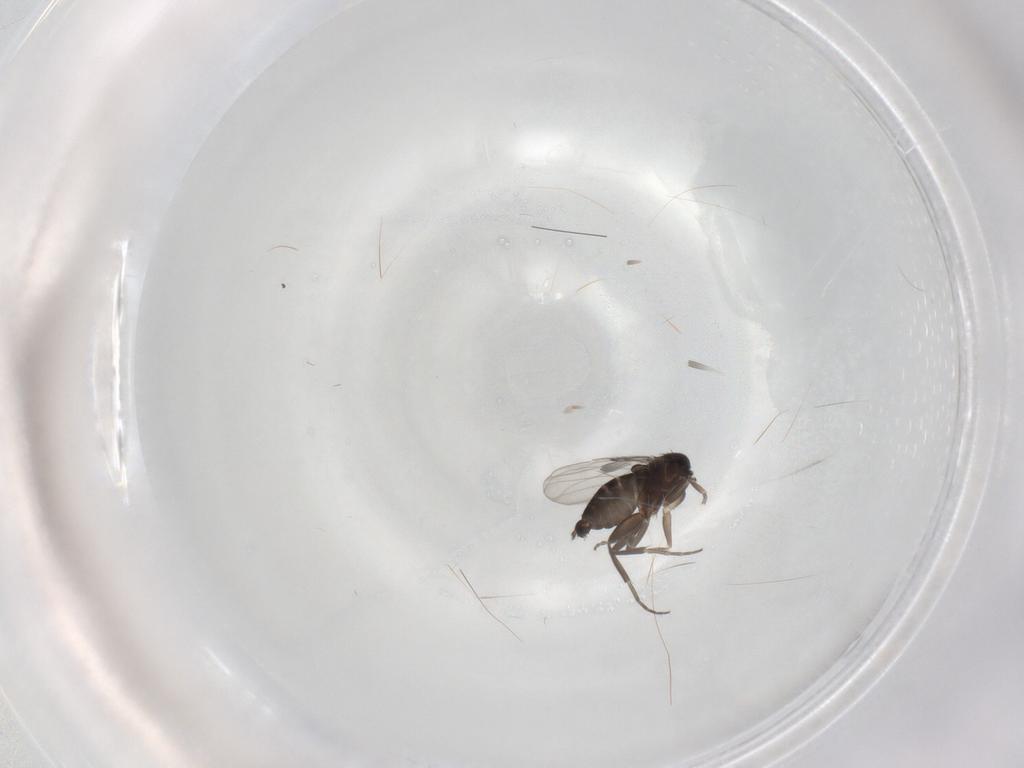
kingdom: Animalia
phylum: Arthropoda
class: Insecta
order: Diptera
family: Phoridae
